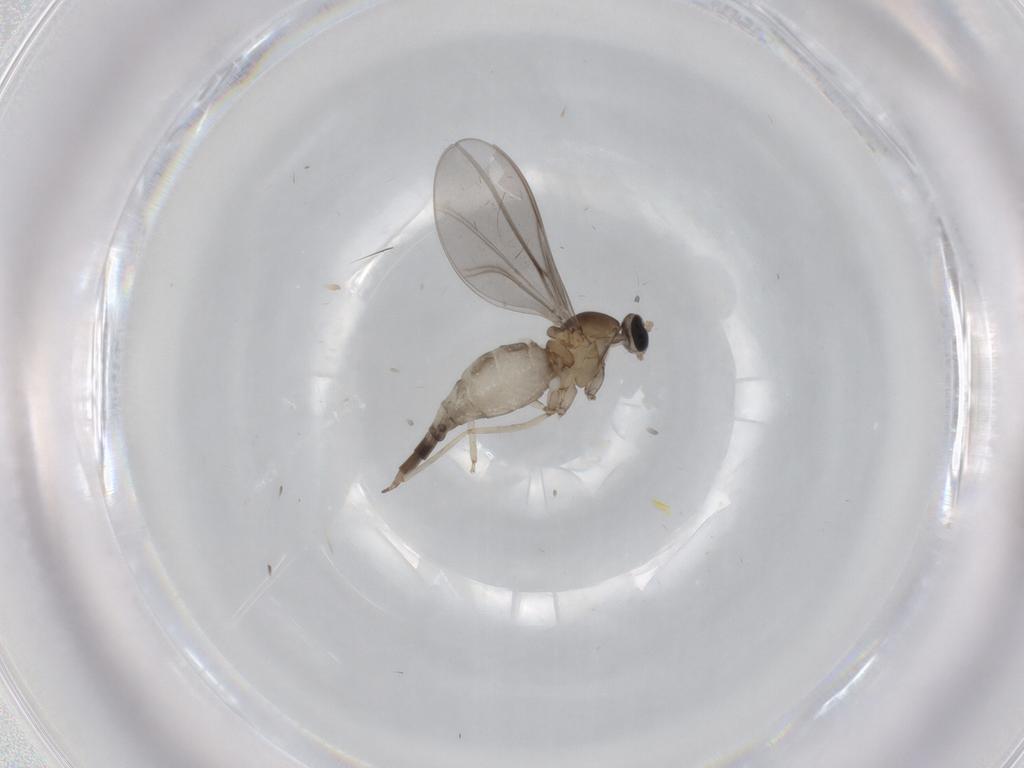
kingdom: Animalia
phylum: Arthropoda
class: Insecta
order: Diptera
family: Cecidomyiidae
